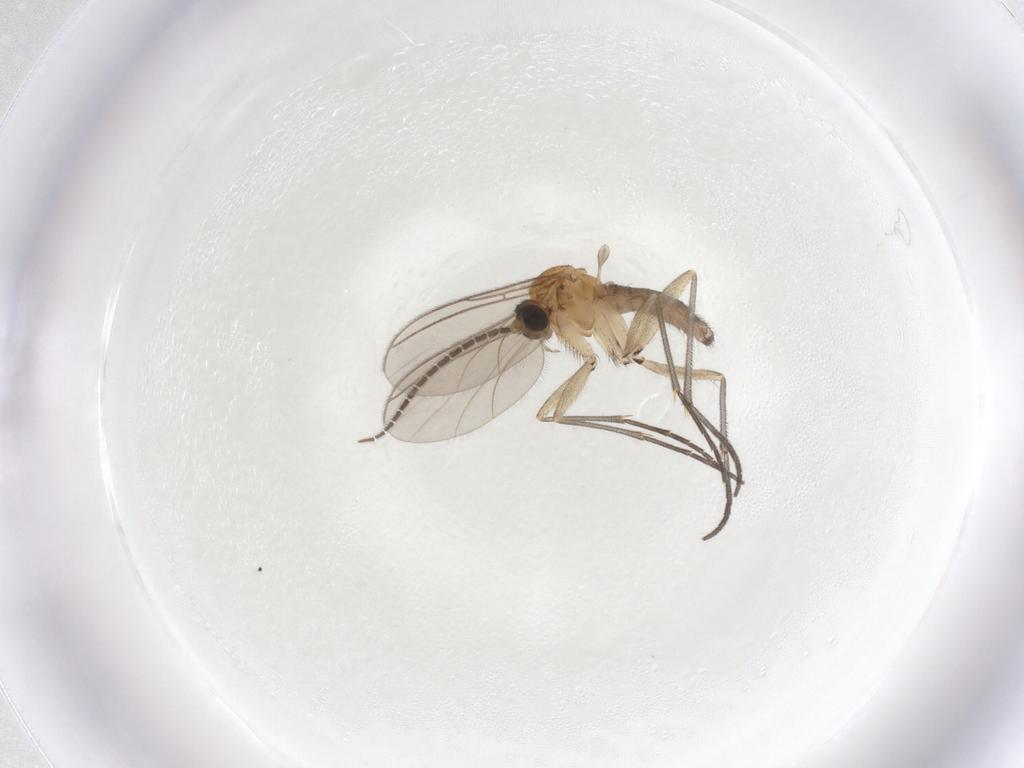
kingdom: Animalia
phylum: Arthropoda
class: Insecta
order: Diptera
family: Sciaridae
